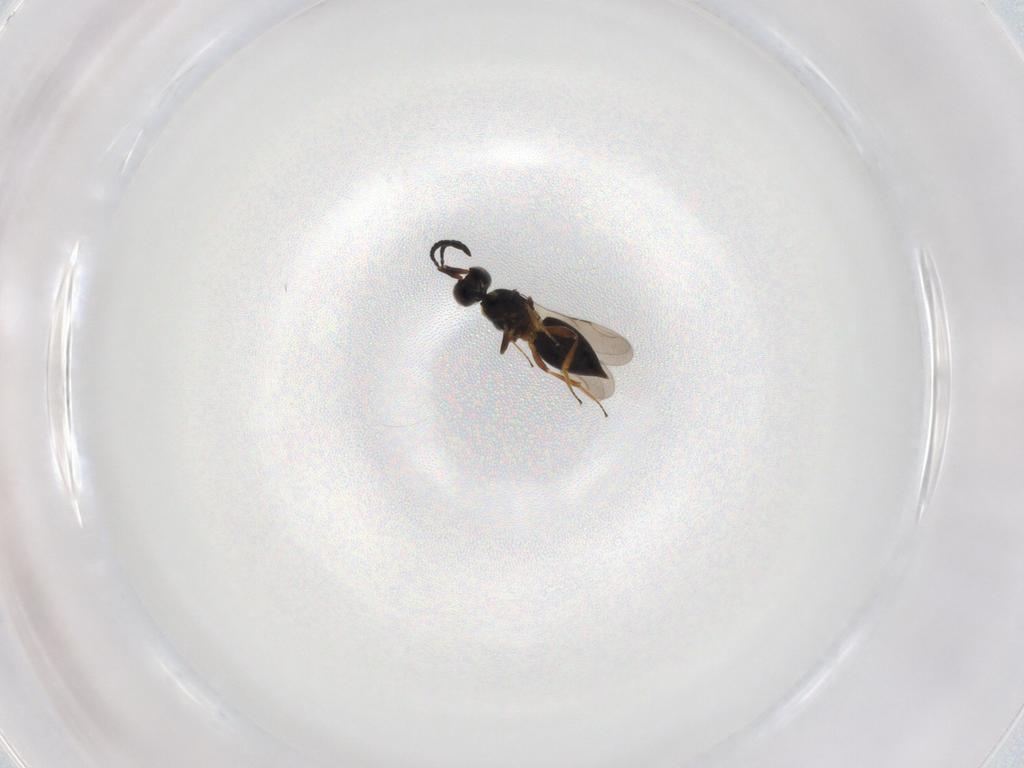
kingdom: Animalia
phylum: Arthropoda
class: Insecta
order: Hymenoptera
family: Ceraphronidae
